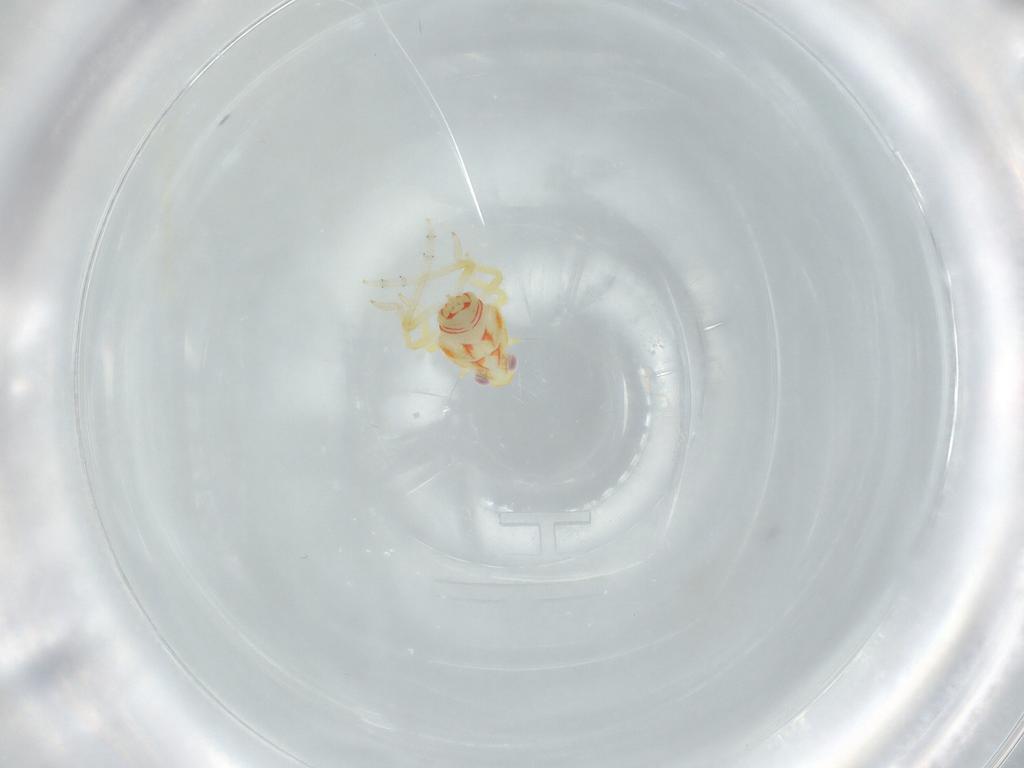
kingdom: Animalia
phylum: Arthropoda
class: Insecta
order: Hemiptera
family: Tropiduchidae
